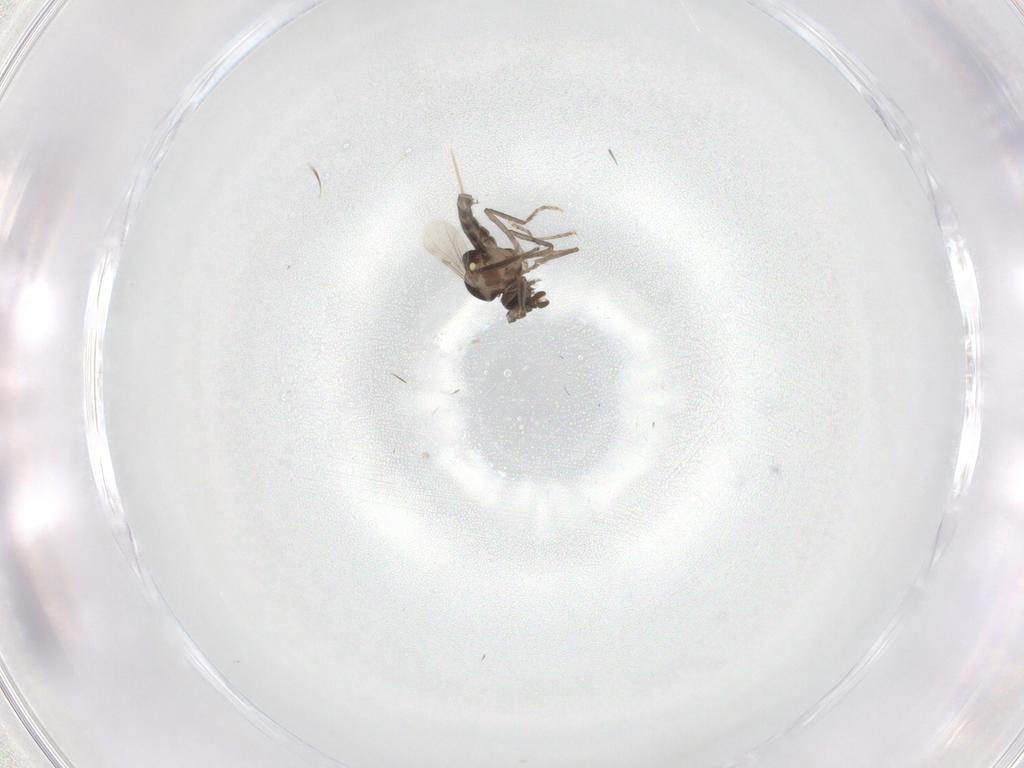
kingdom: Animalia
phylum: Arthropoda
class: Insecta
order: Diptera
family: Ceratopogonidae
